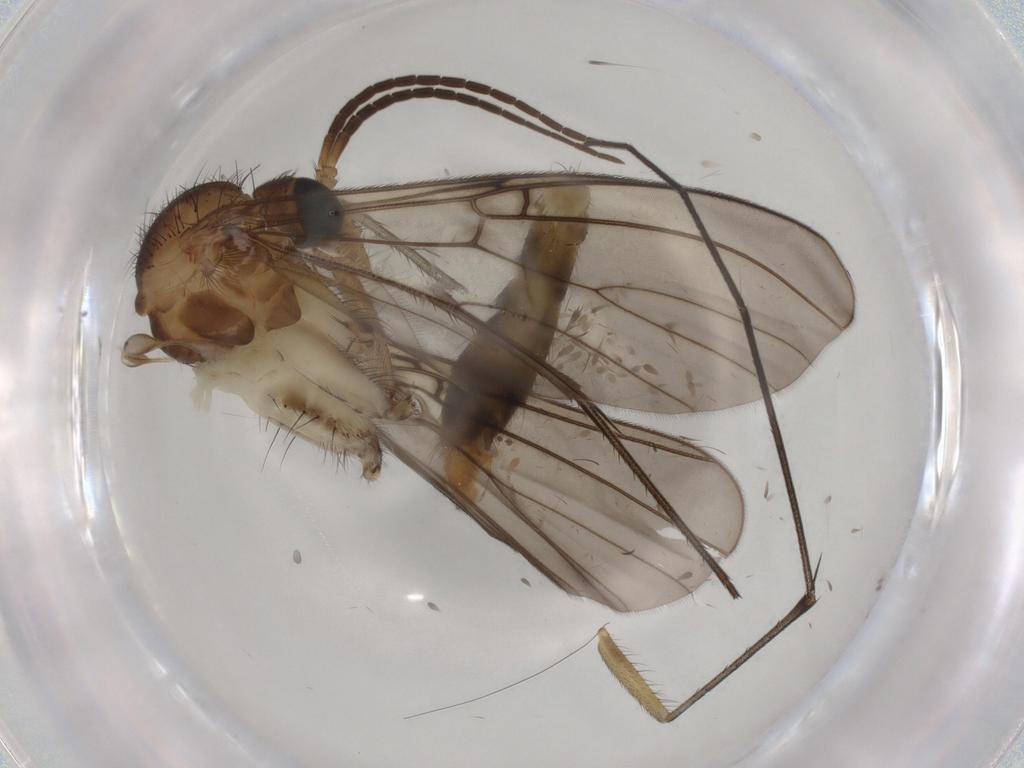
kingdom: Animalia
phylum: Arthropoda
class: Insecta
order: Diptera
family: Mycetophilidae
